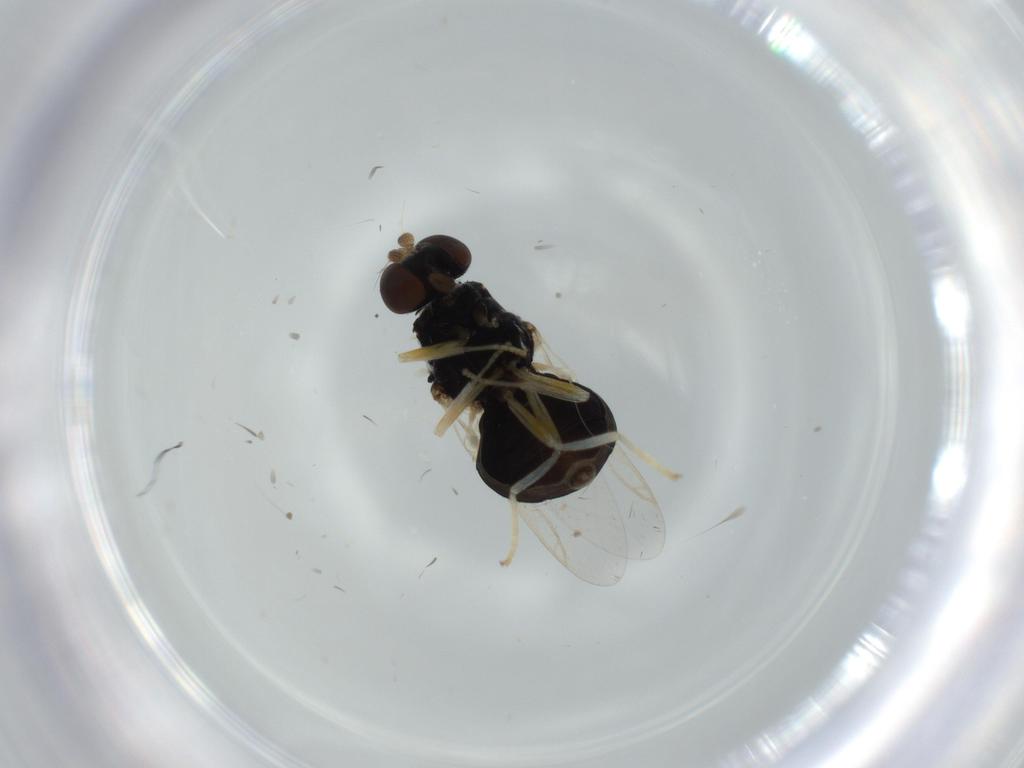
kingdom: Animalia
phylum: Arthropoda
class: Insecta
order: Diptera
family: Stratiomyidae
